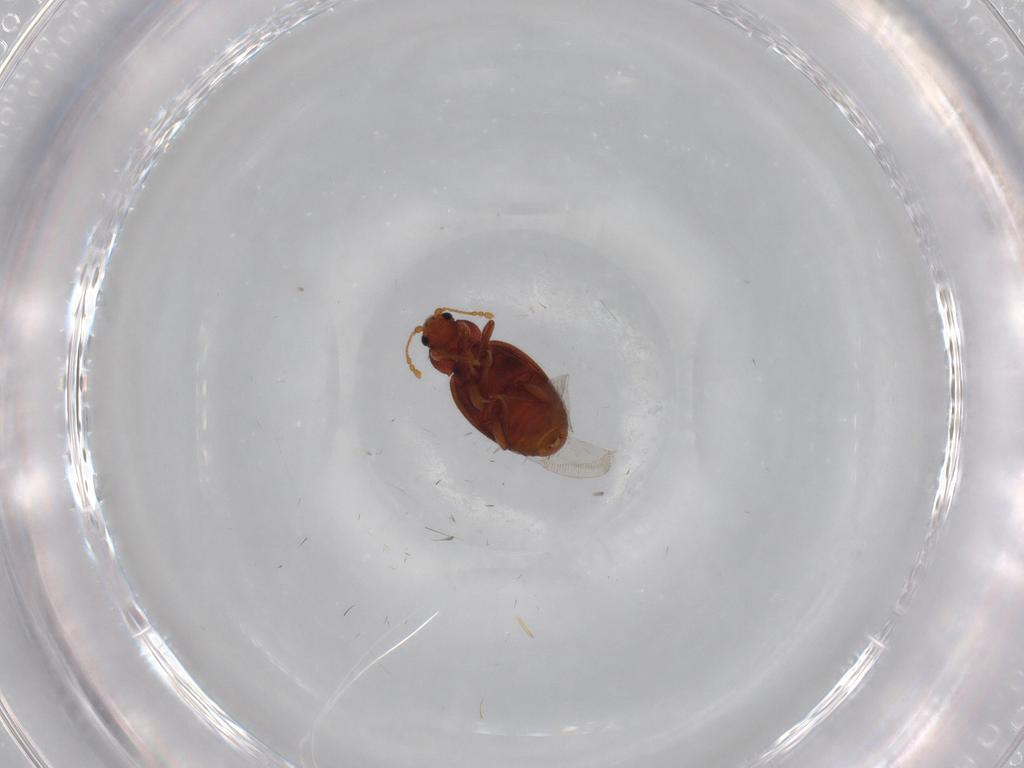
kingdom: Animalia
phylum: Arthropoda
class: Insecta
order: Coleoptera
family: Latridiidae
